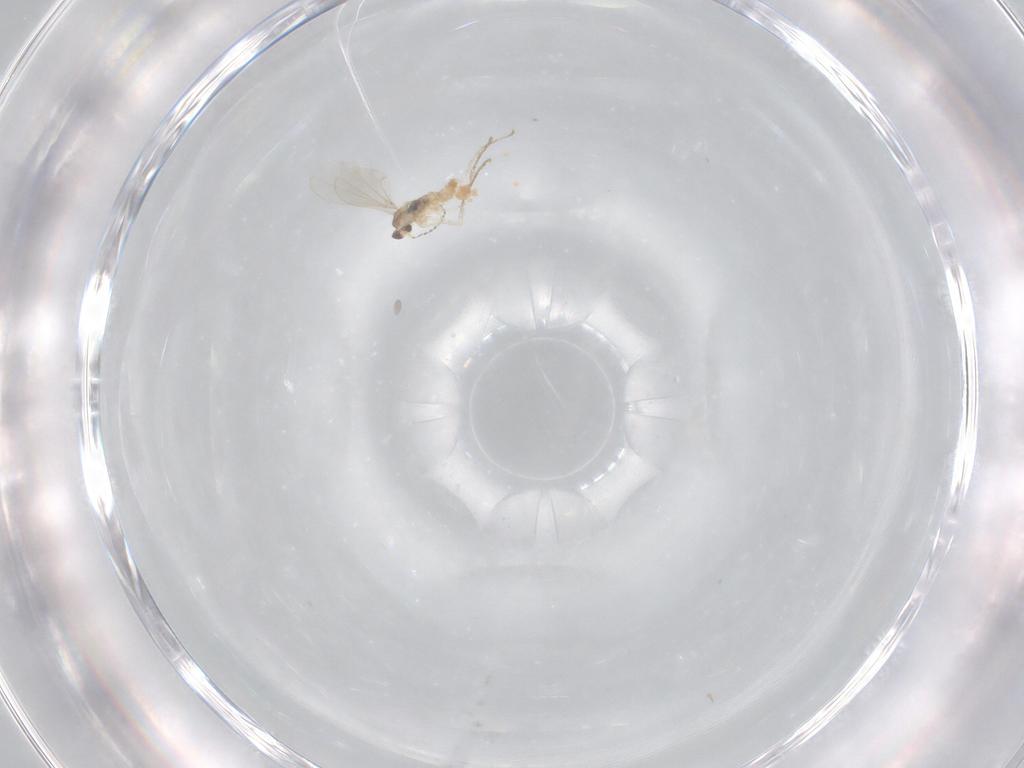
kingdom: Animalia
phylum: Arthropoda
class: Insecta
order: Diptera
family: Cecidomyiidae
